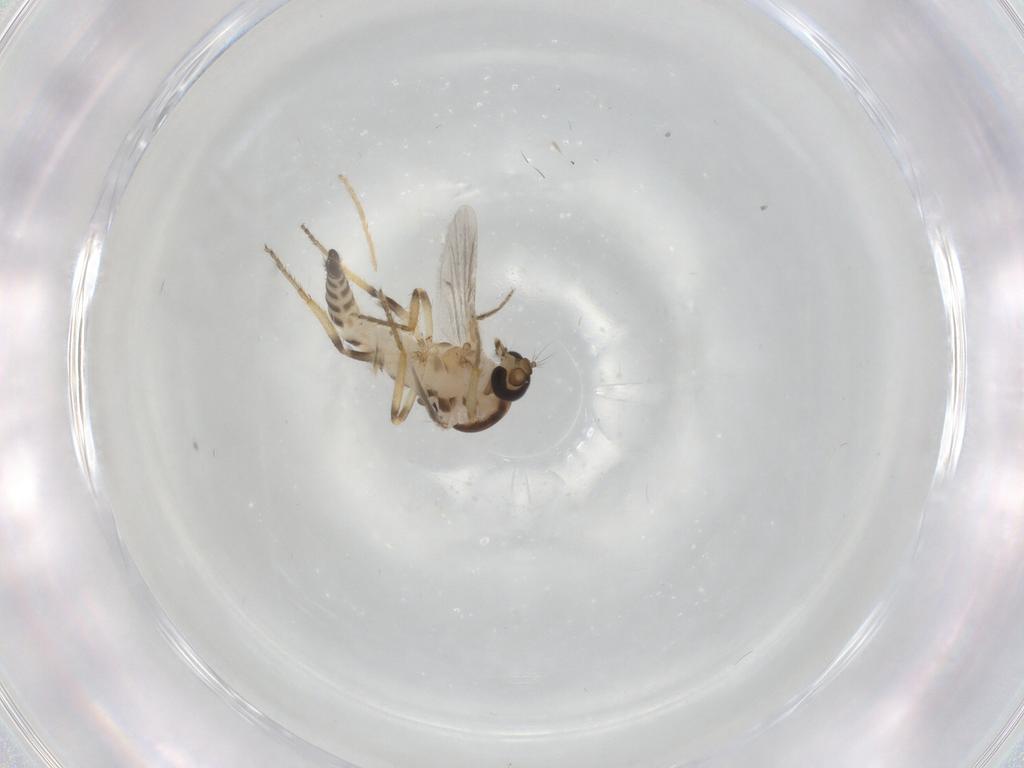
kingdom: Animalia
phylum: Arthropoda
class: Insecta
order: Diptera
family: Ceratopogonidae
